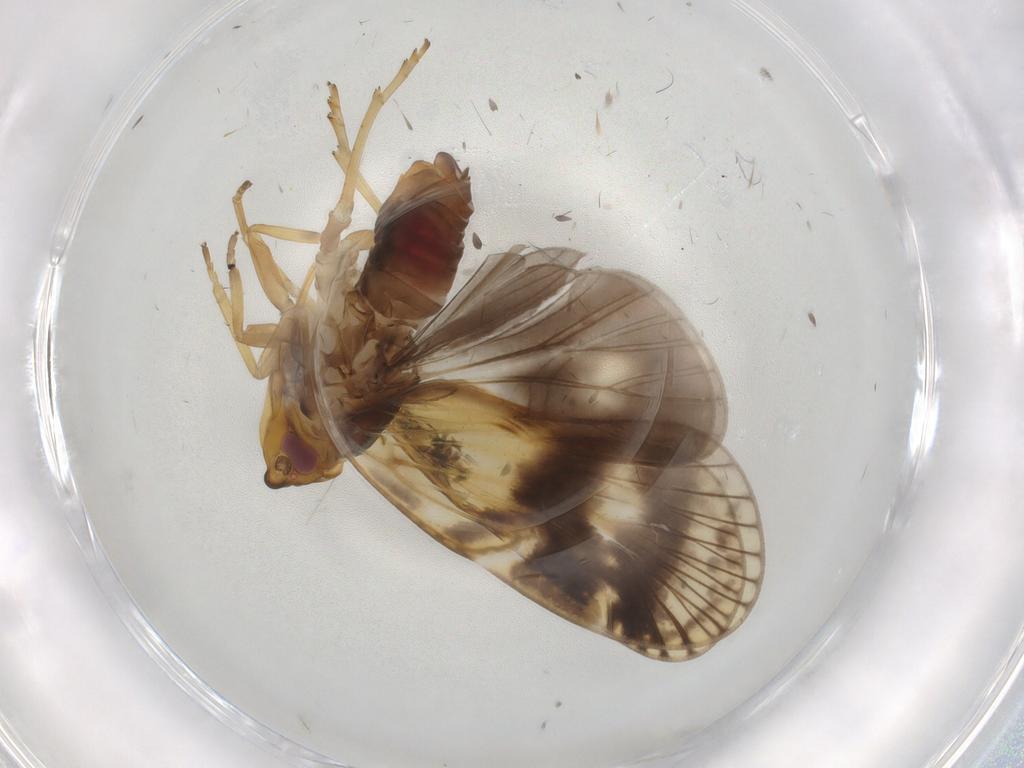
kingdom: Animalia
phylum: Arthropoda
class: Insecta
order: Hemiptera
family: Cicadellidae
